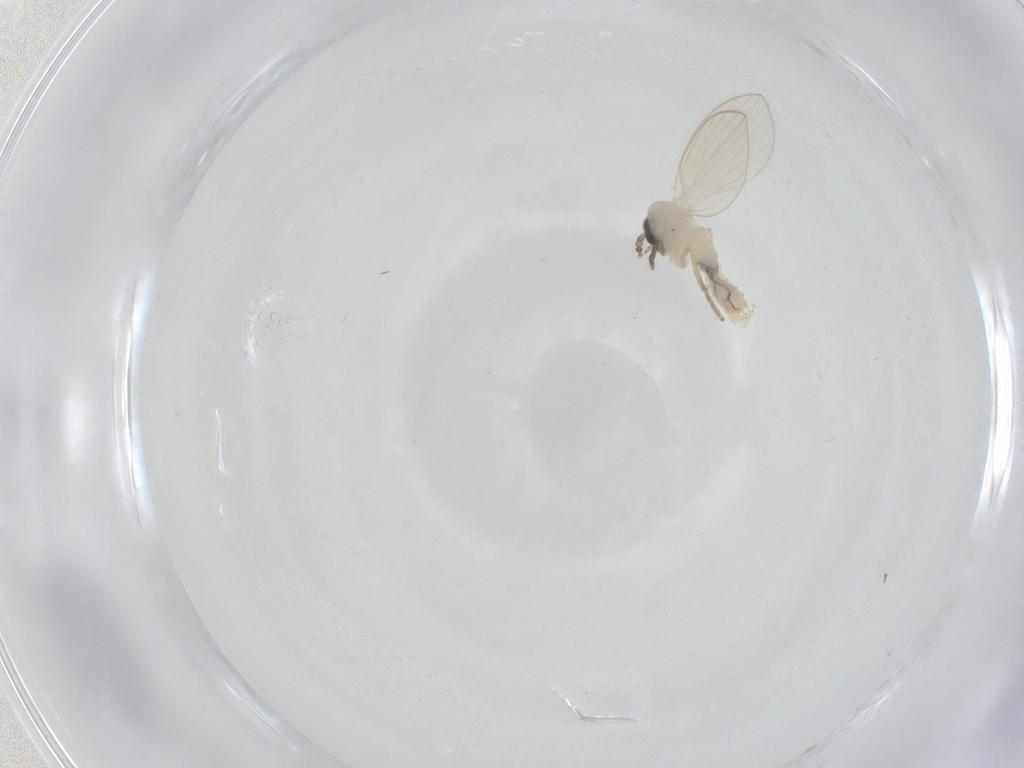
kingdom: Animalia
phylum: Arthropoda
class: Insecta
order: Diptera
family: Psychodidae
